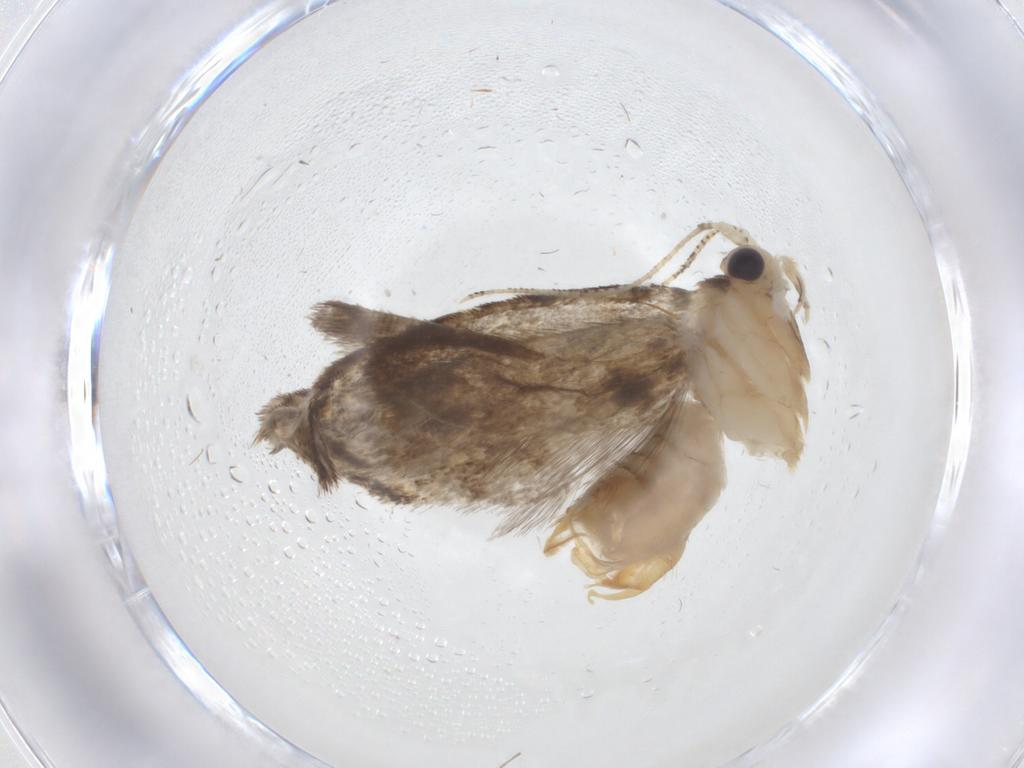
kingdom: Animalia
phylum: Arthropoda
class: Insecta
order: Lepidoptera
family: Tineidae
